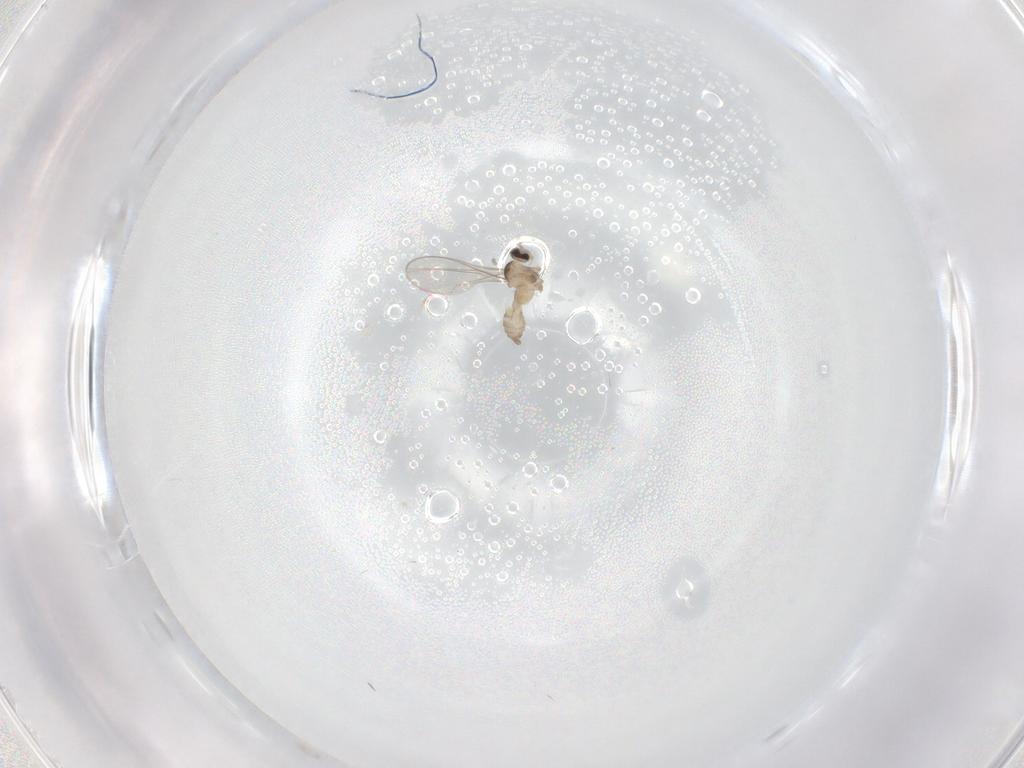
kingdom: Animalia
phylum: Arthropoda
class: Insecta
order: Diptera
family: Cecidomyiidae
